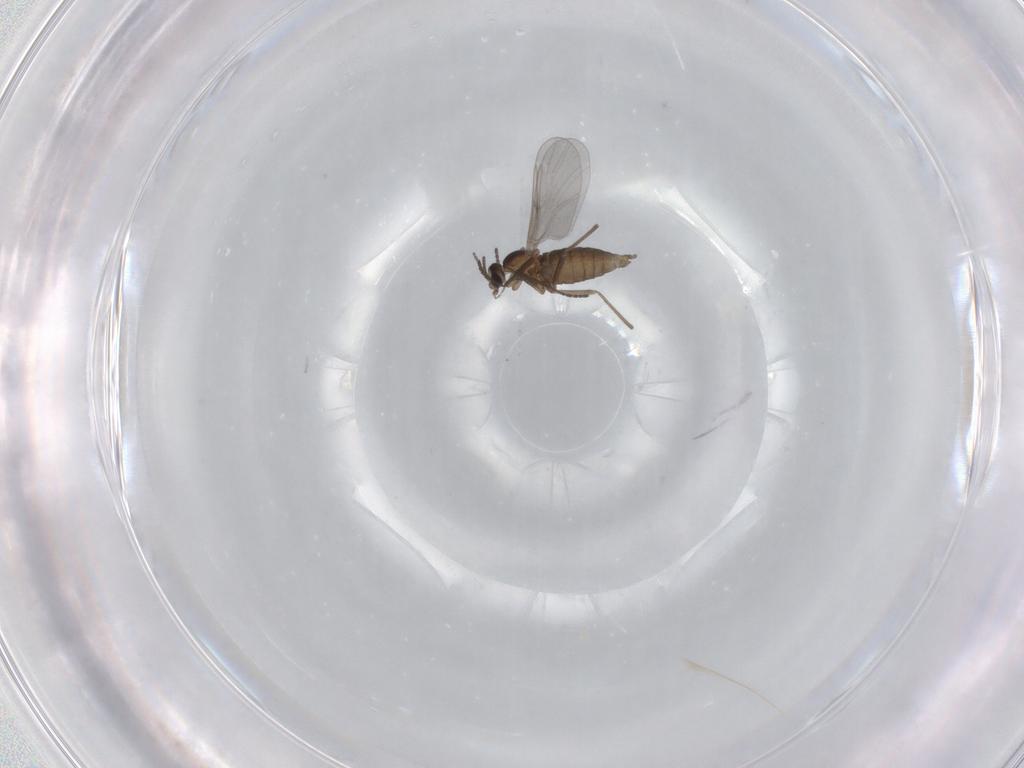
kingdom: Animalia
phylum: Arthropoda
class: Insecta
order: Diptera
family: Cecidomyiidae
